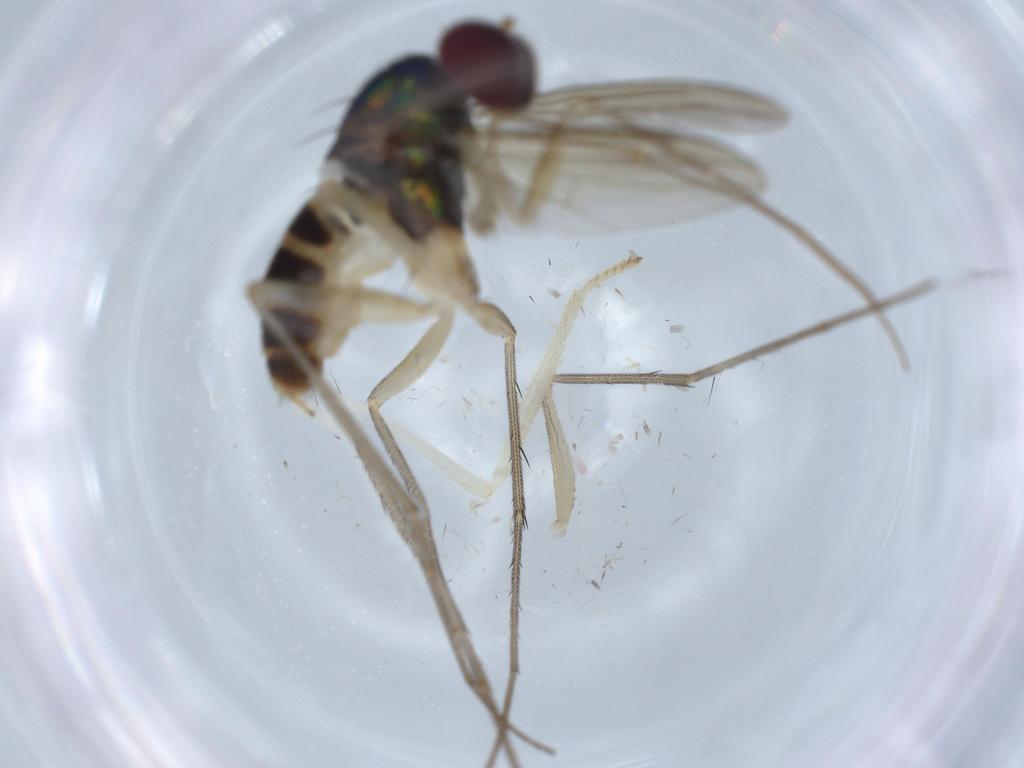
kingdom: Animalia
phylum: Arthropoda
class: Insecta
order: Diptera
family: Dolichopodidae
